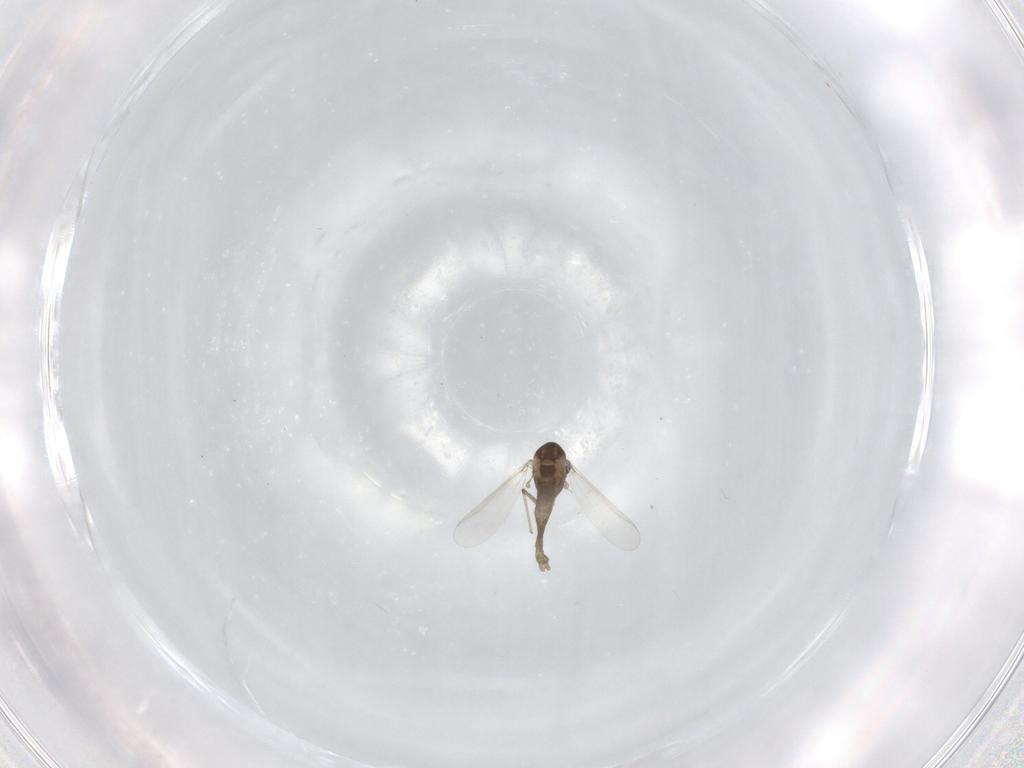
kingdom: Animalia
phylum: Arthropoda
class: Insecta
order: Diptera
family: Chironomidae
